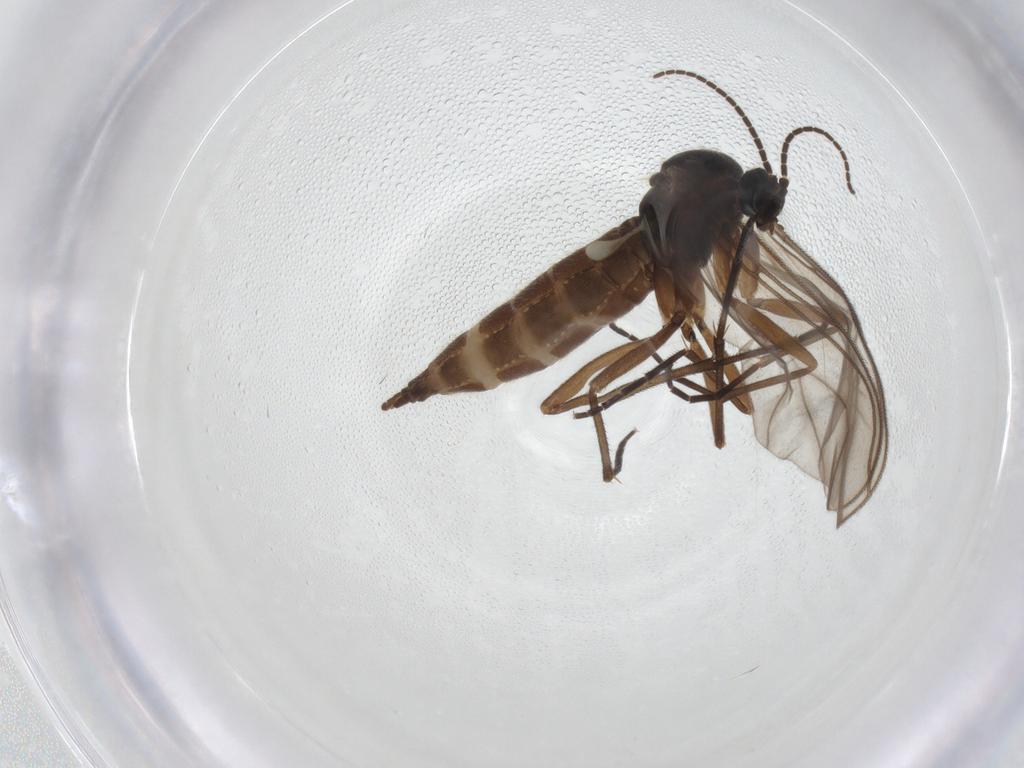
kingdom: Animalia
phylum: Arthropoda
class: Insecta
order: Diptera
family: Sciaridae
